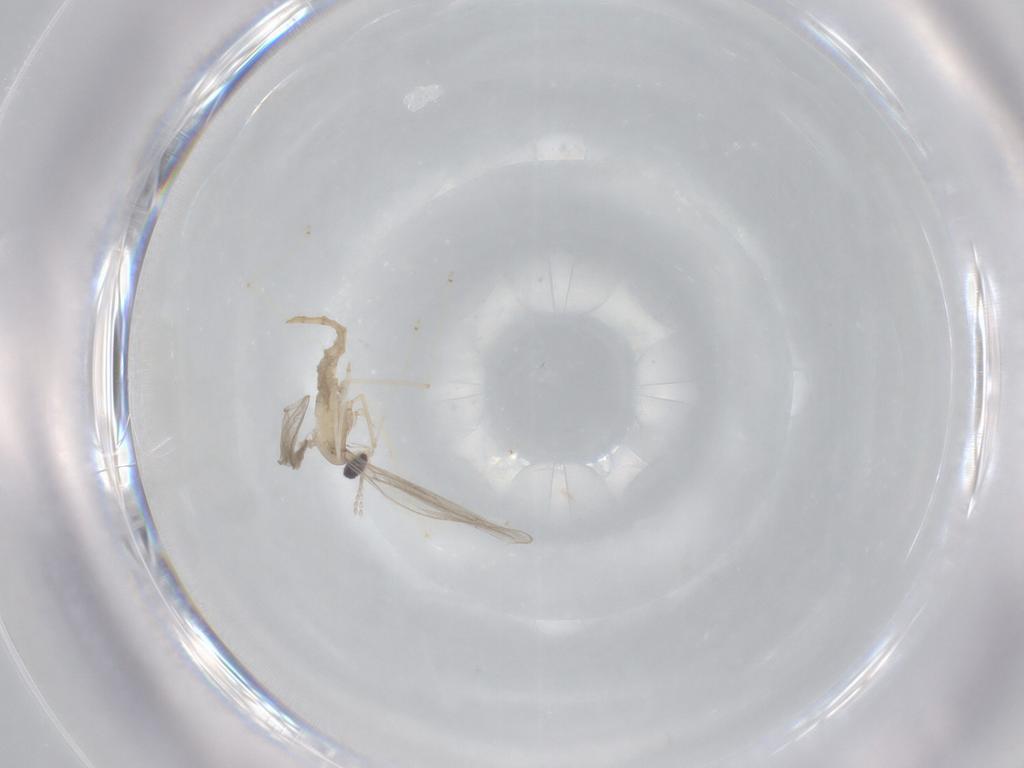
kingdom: Animalia
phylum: Arthropoda
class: Insecta
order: Diptera
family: Cecidomyiidae
